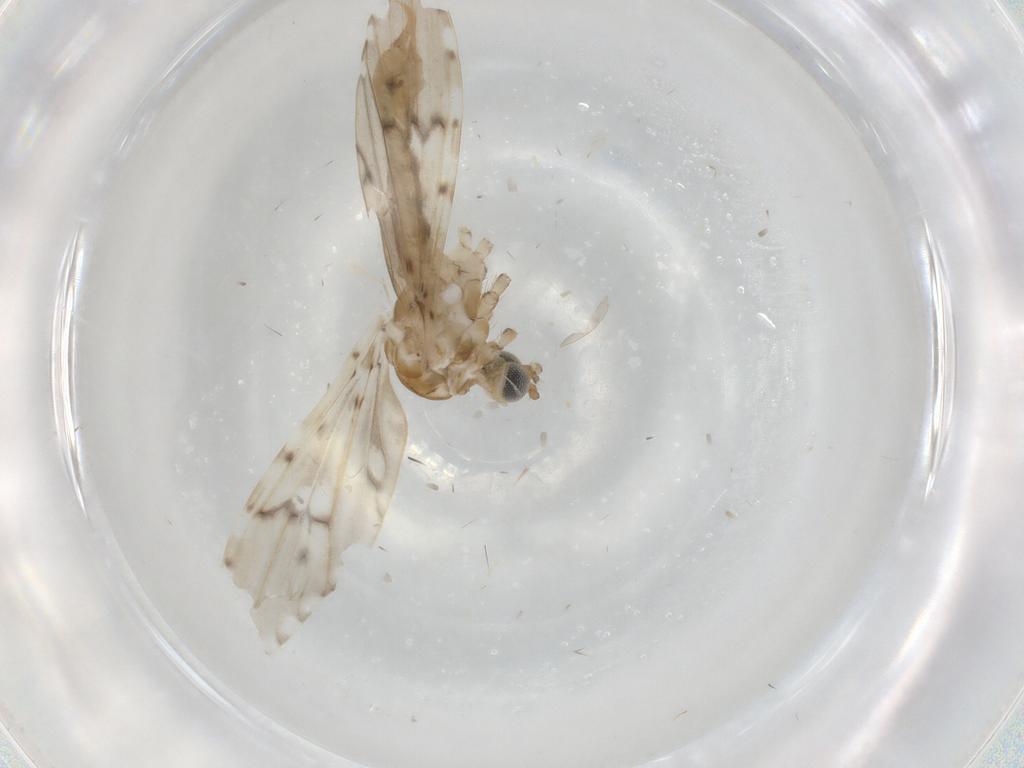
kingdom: Animalia
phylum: Arthropoda
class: Insecta
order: Diptera
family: Limoniidae
